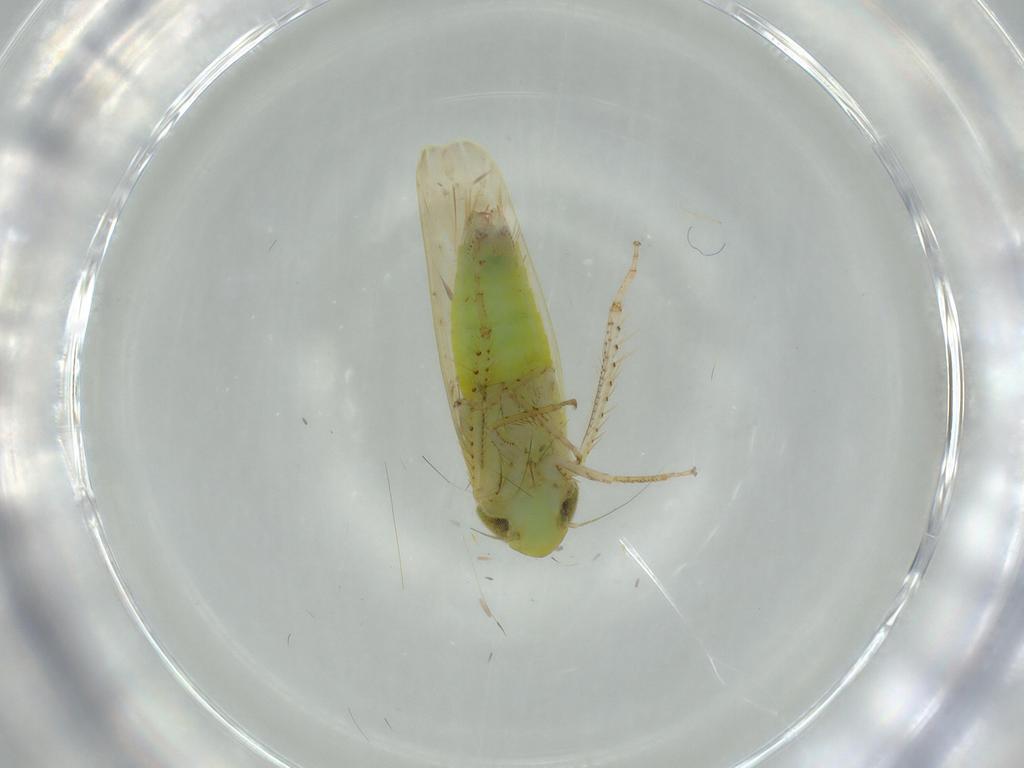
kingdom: Animalia
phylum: Arthropoda
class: Insecta
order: Hemiptera
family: Cicadellidae
